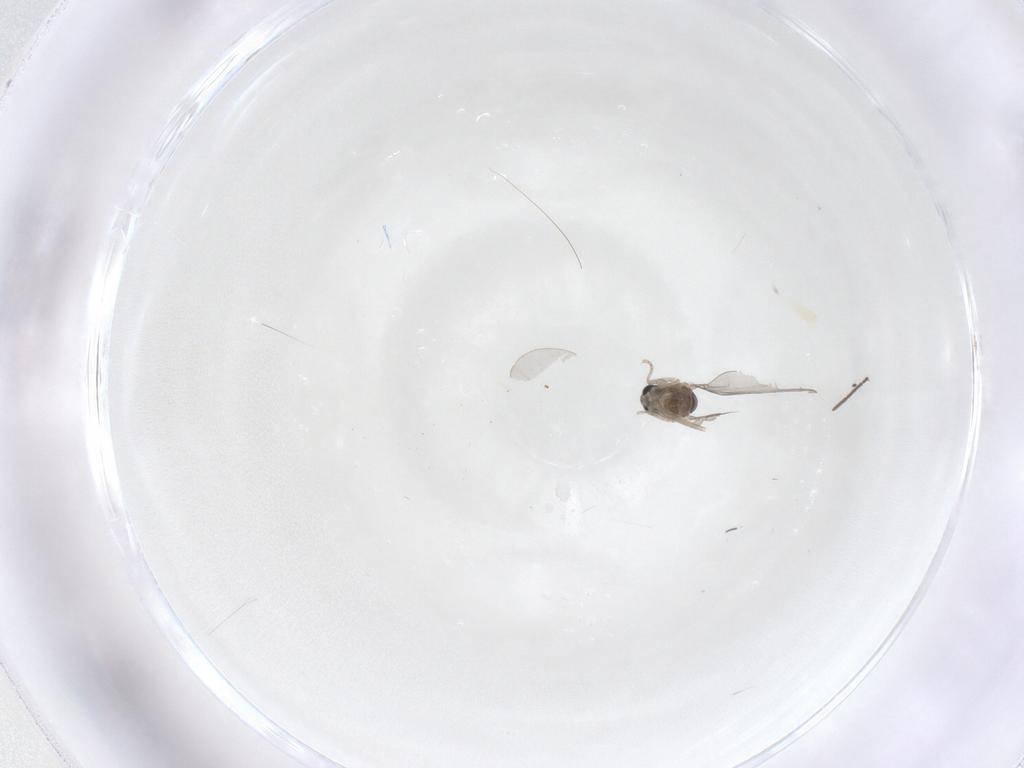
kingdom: Animalia
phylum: Arthropoda
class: Insecta
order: Diptera
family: Cecidomyiidae
